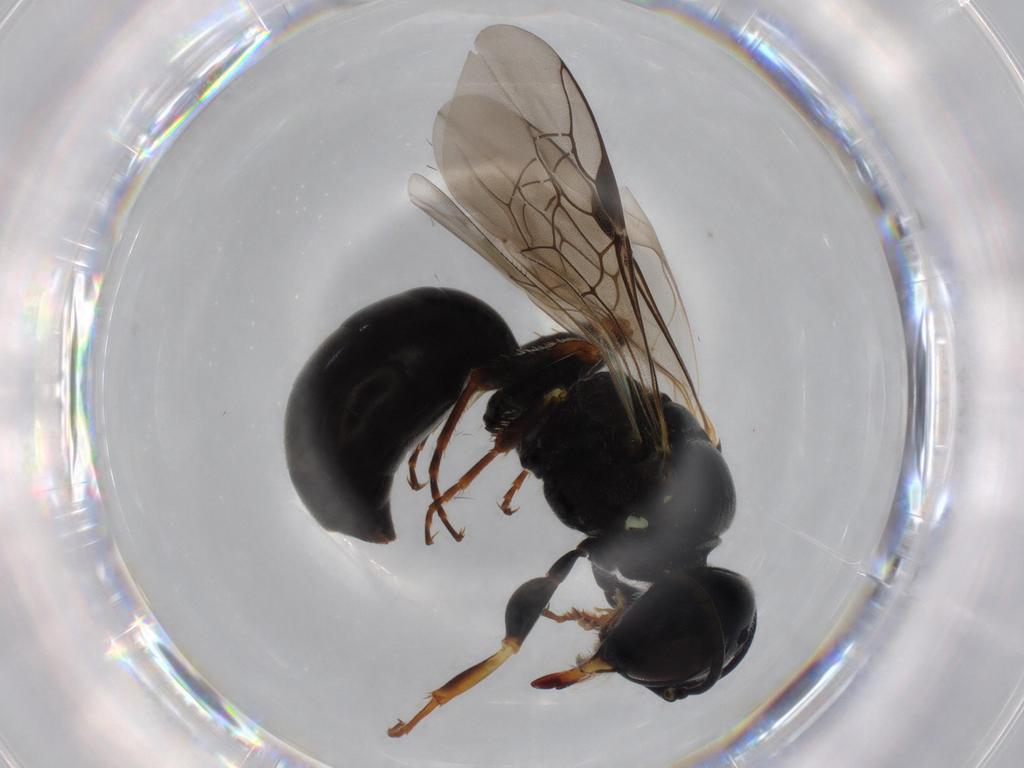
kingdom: Animalia
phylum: Arthropoda
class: Insecta
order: Hymenoptera
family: Crabronidae
